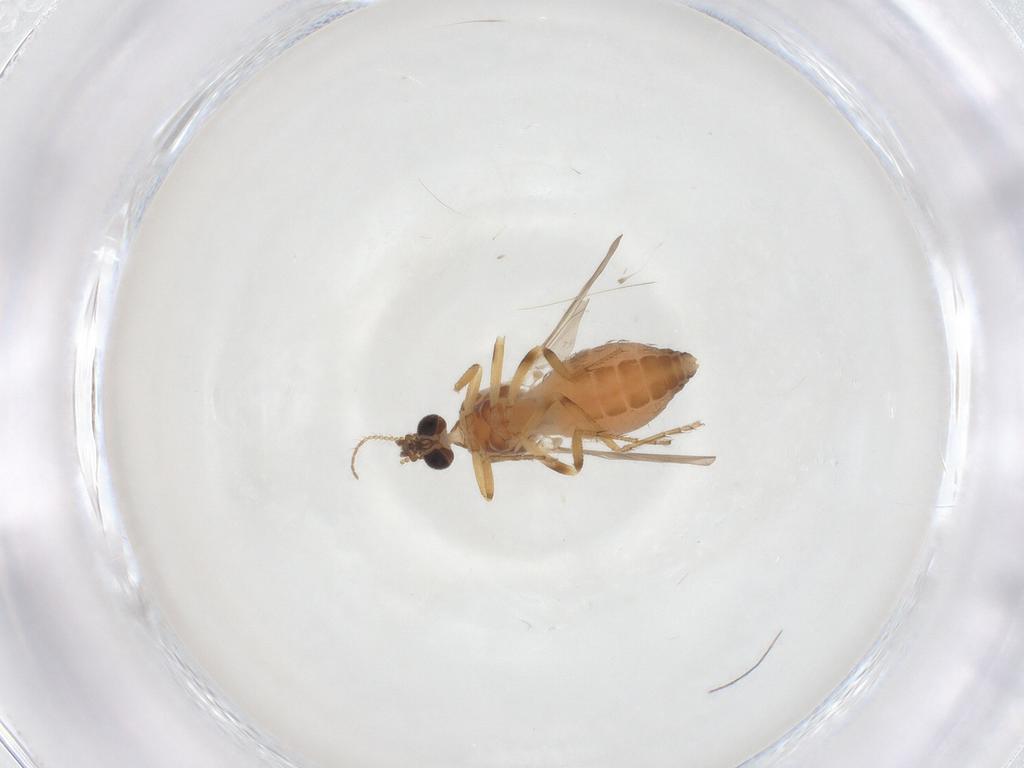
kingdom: Animalia
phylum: Arthropoda
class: Insecta
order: Diptera
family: Ceratopogonidae
